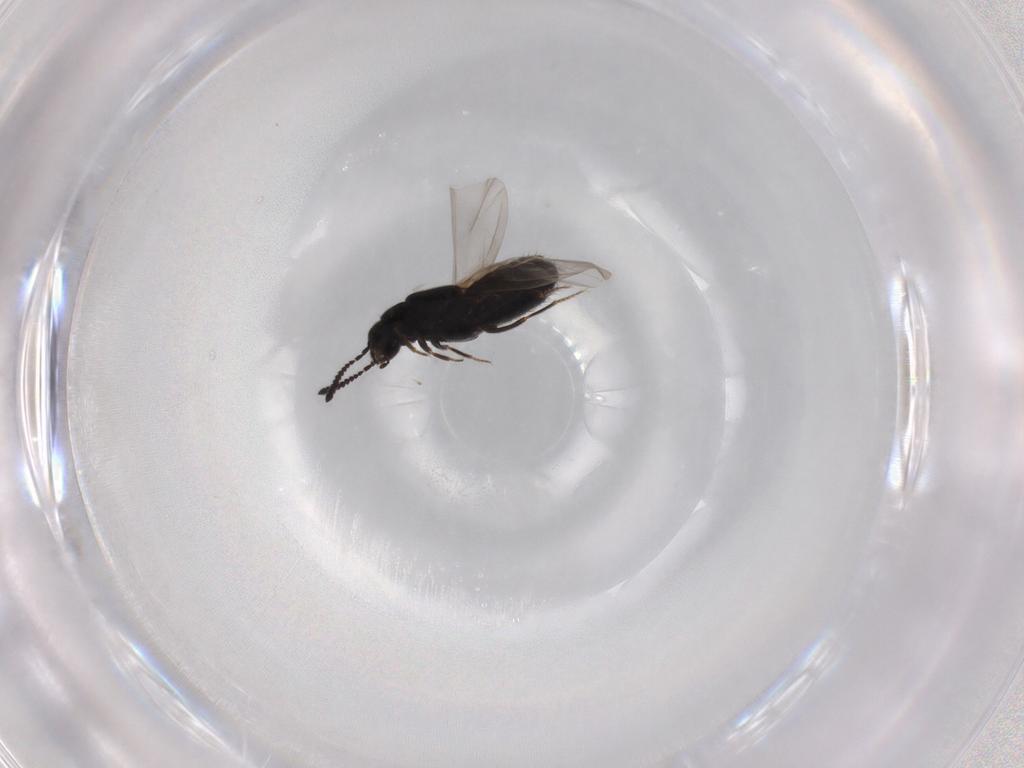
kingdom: Animalia
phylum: Arthropoda
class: Insecta
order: Coleoptera
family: Staphylinidae
